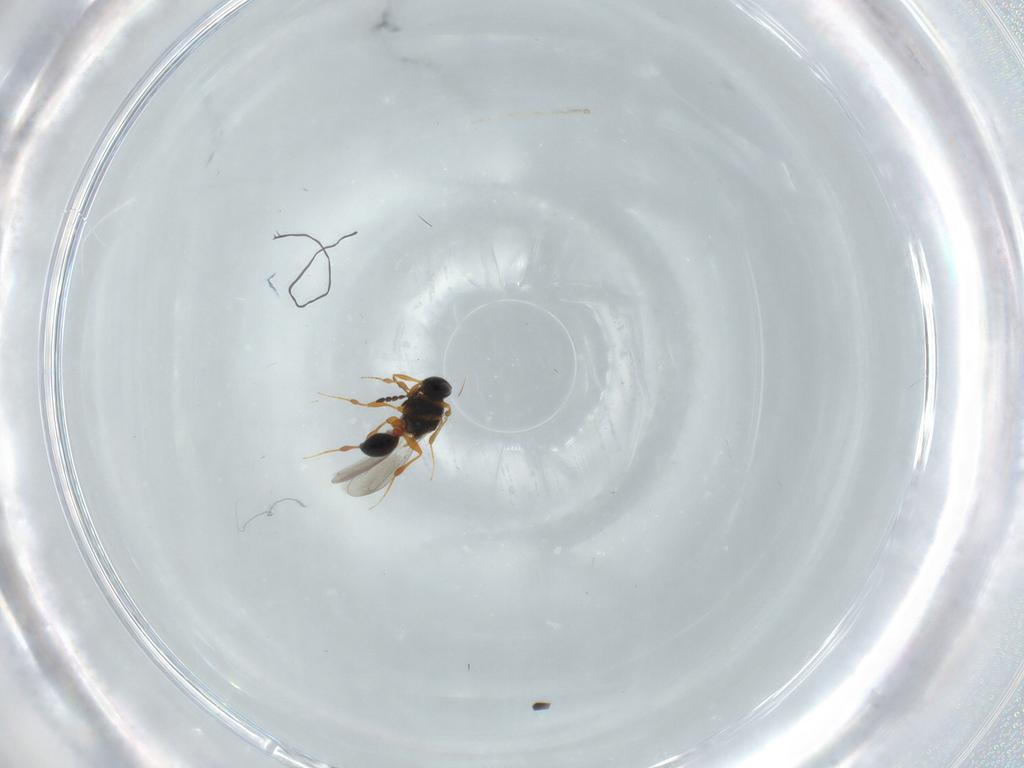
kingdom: Animalia
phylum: Arthropoda
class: Insecta
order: Hymenoptera
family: Platygastridae
